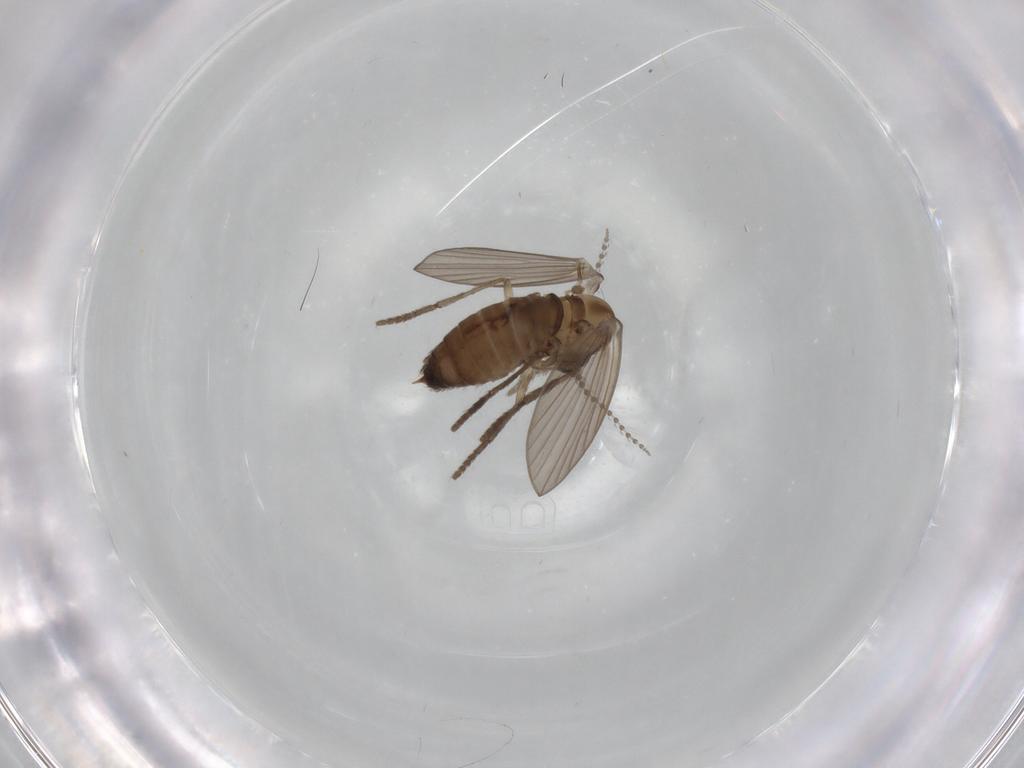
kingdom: Animalia
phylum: Arthropoda
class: Insecta
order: Diptera
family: Psychodidae
